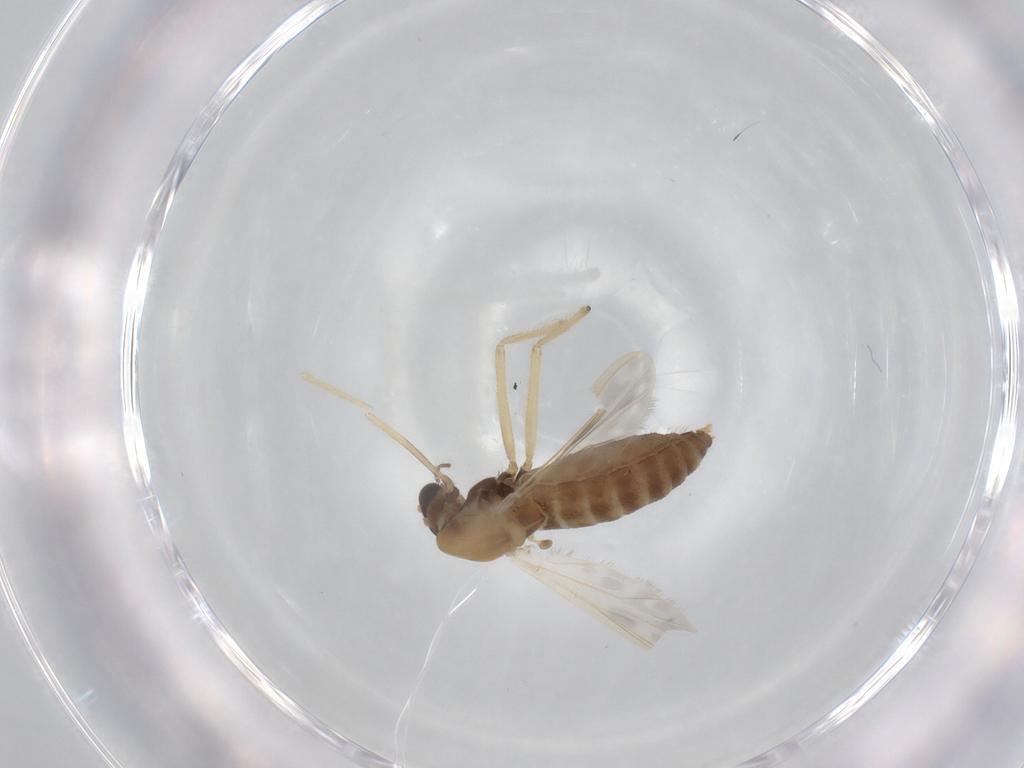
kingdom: Animalia
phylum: Arthropoda
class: Insecta
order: Diptera
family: Chironomidae
